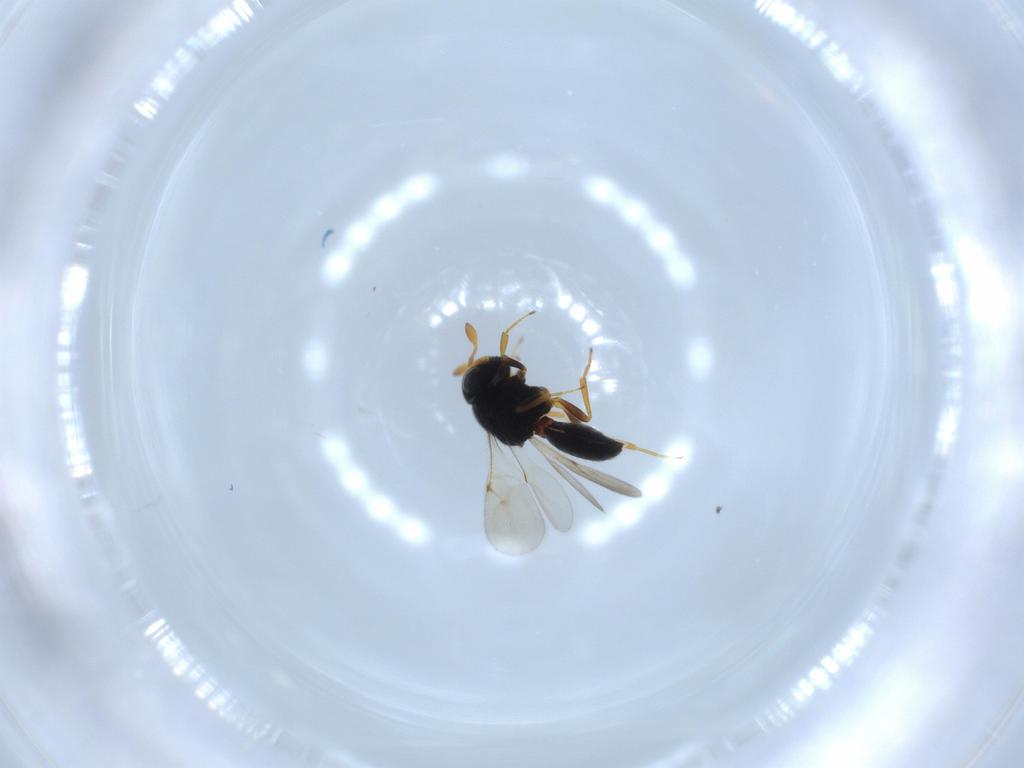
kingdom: Animalia
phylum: Arthropoda
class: Insecta
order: Hymenoptera
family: Scelionidae
